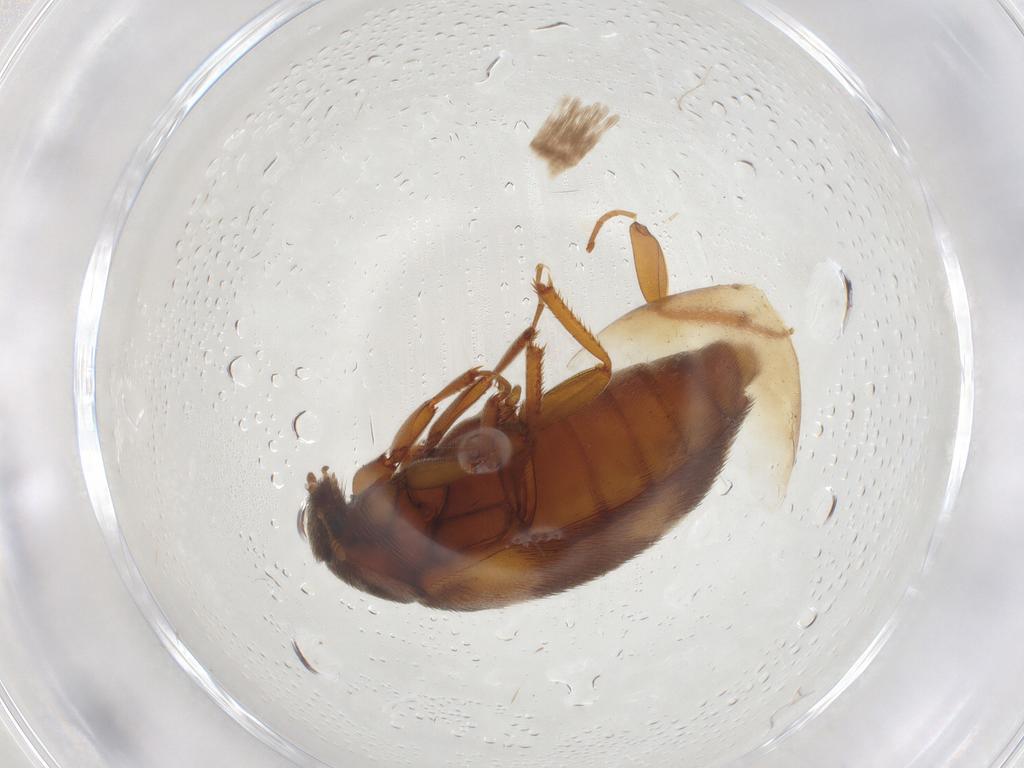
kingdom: Animalia
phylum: Arthropoda
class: Insecta
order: Coleoptera
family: Dermestidae
